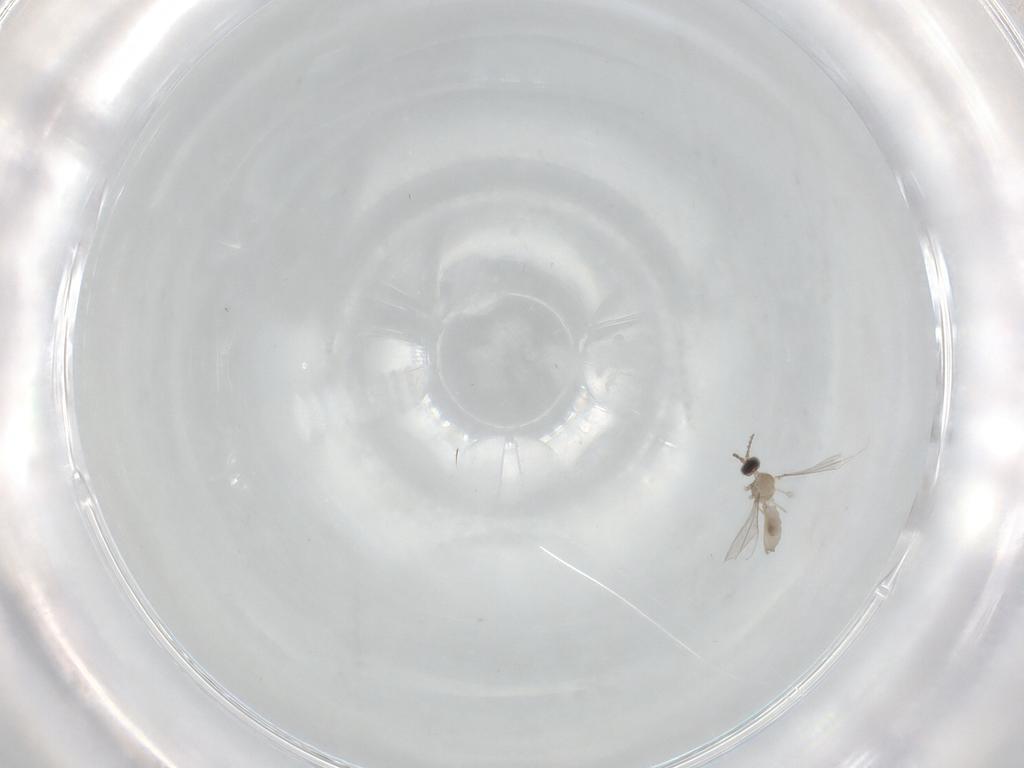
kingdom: Animalia
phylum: Arthropoda
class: Insecta
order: Diptera
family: Cecidomyiidae
